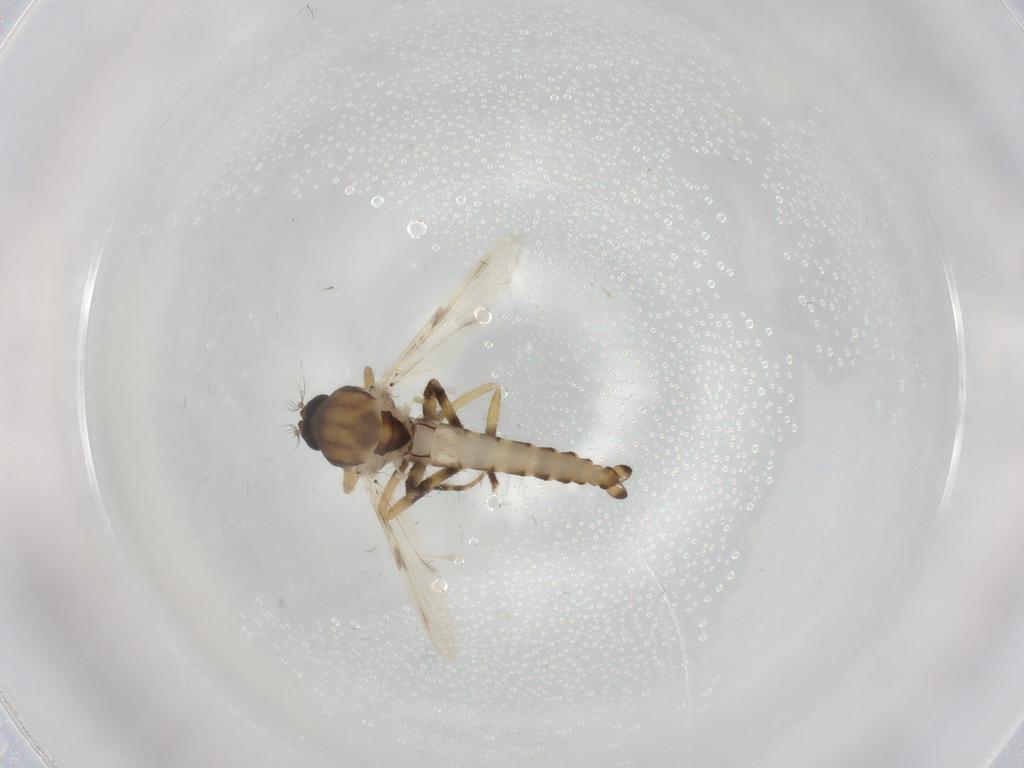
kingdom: Animalia
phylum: Arthropoda
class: Insecta
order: Diptera
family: Ceratopogonidae
